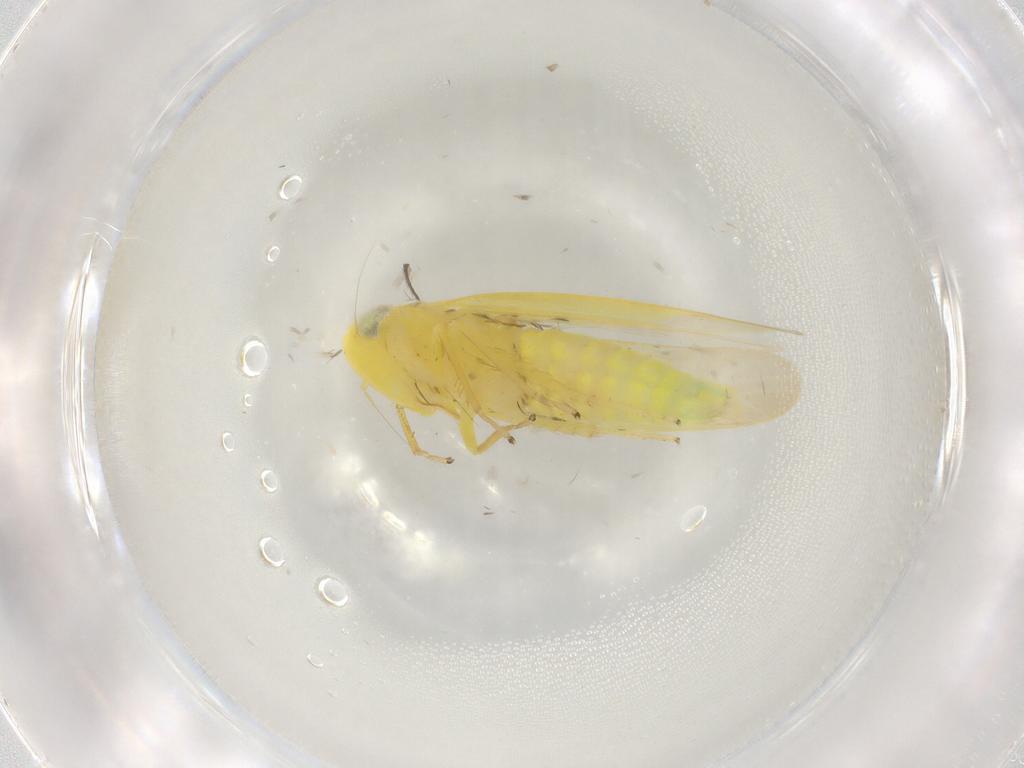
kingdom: Animalia
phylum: Arthropoda
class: Insecta
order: Hemiptera
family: Cicadellidae
